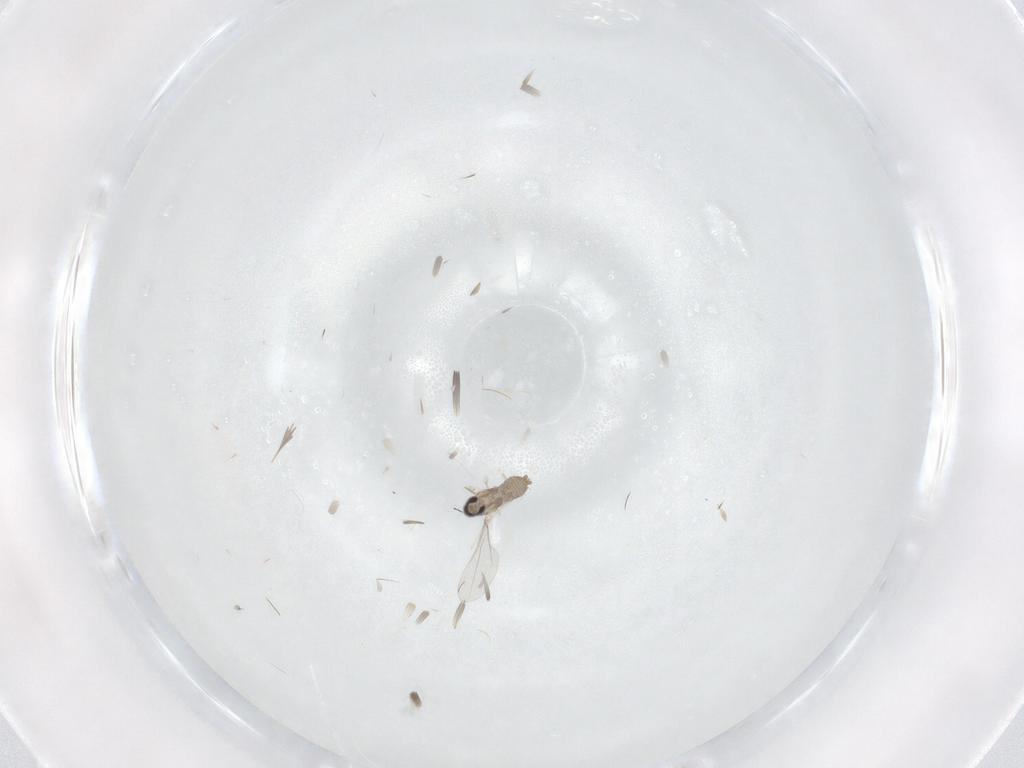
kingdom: Animalia
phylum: Arthropoda
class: Insecta
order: Diptera
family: Cecidomyiidae
